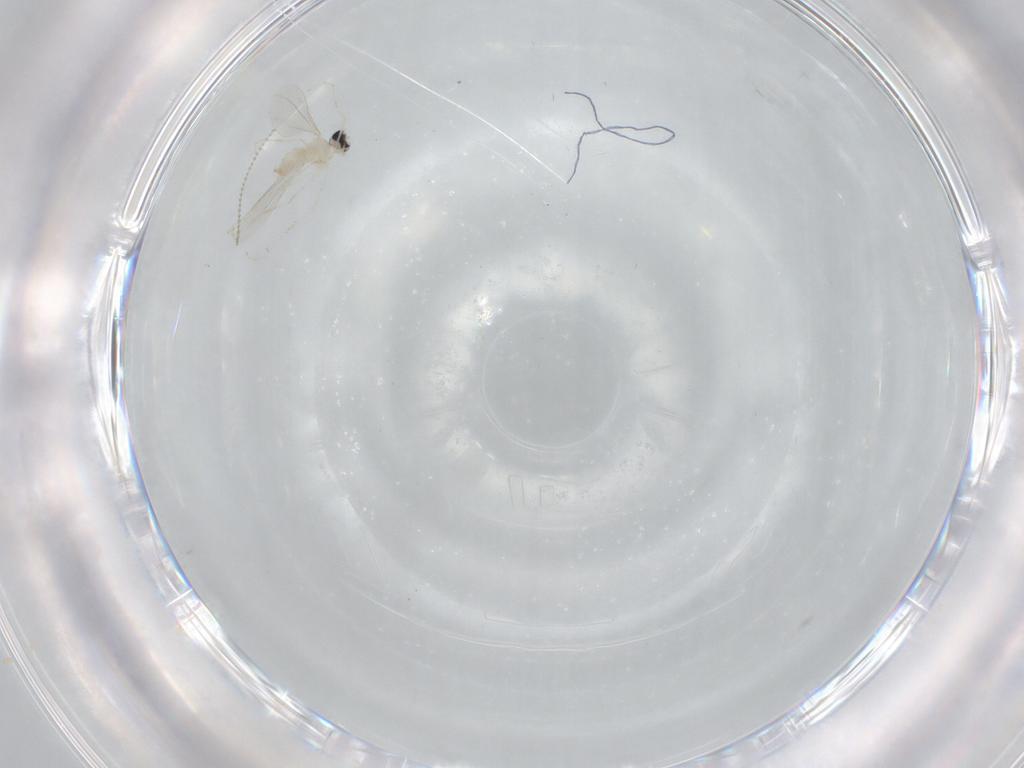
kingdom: Animalia
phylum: Arthropoda
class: Insecta
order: Diptera
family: Cecidomyiidae
